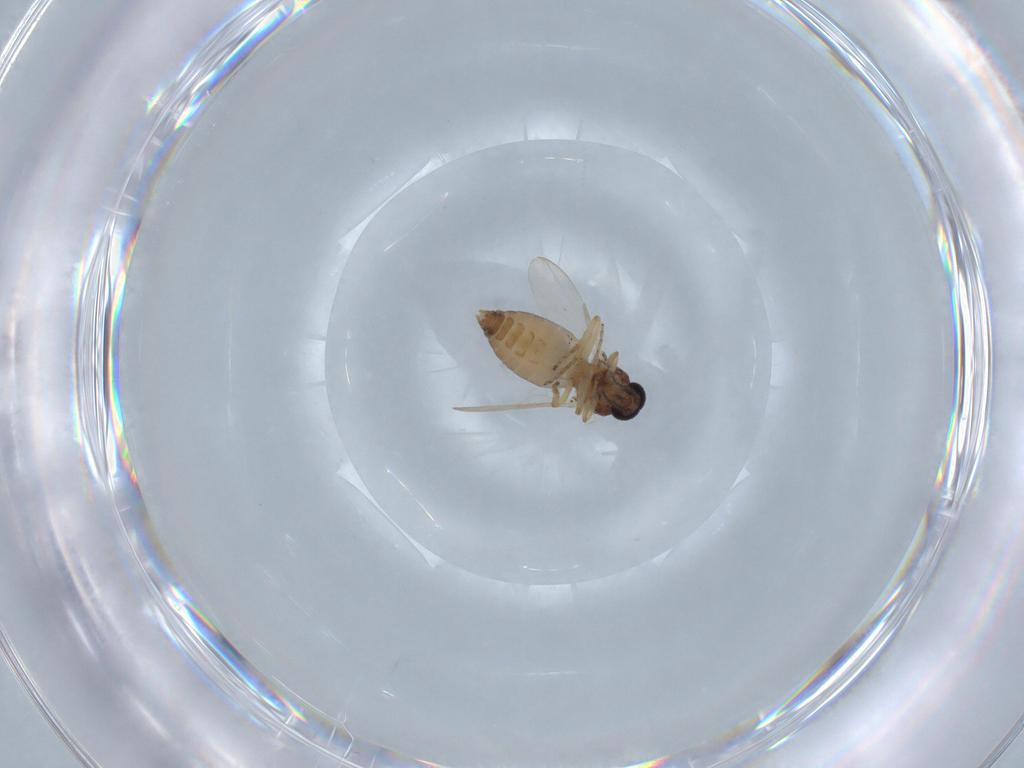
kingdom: Animalia
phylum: Arthropoda
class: Insecta
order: Diptera
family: Ceratopogonidae
